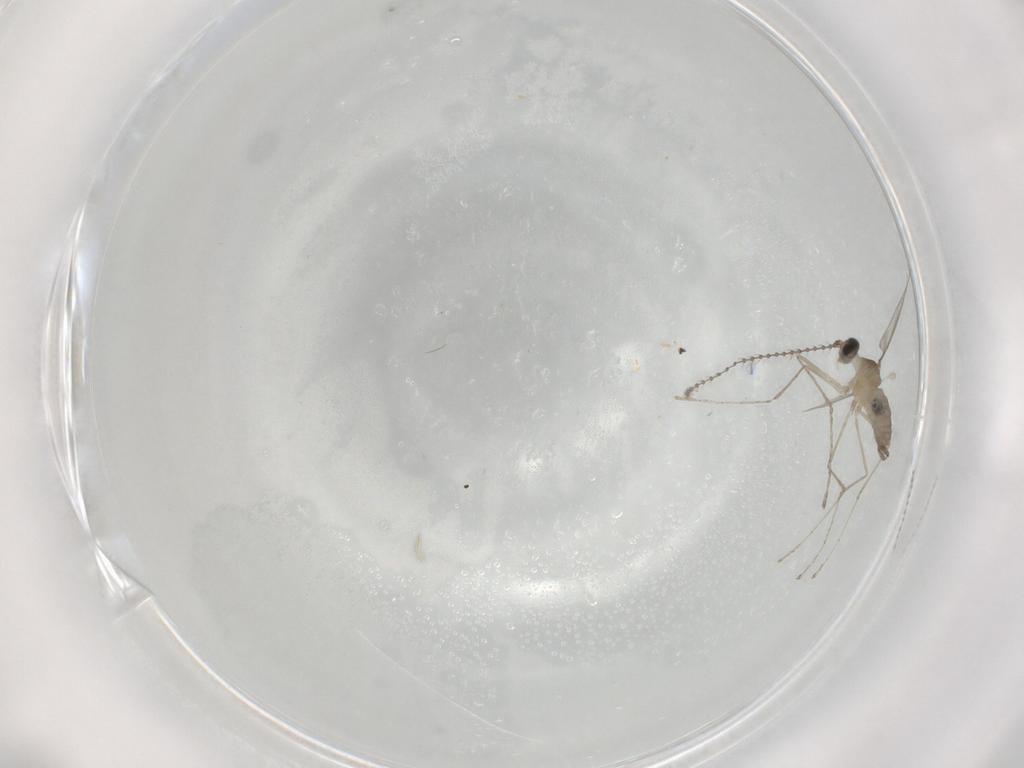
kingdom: Animalia
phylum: Arthropoda
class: Insecta
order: Diptera
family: Cecidomyiidae
